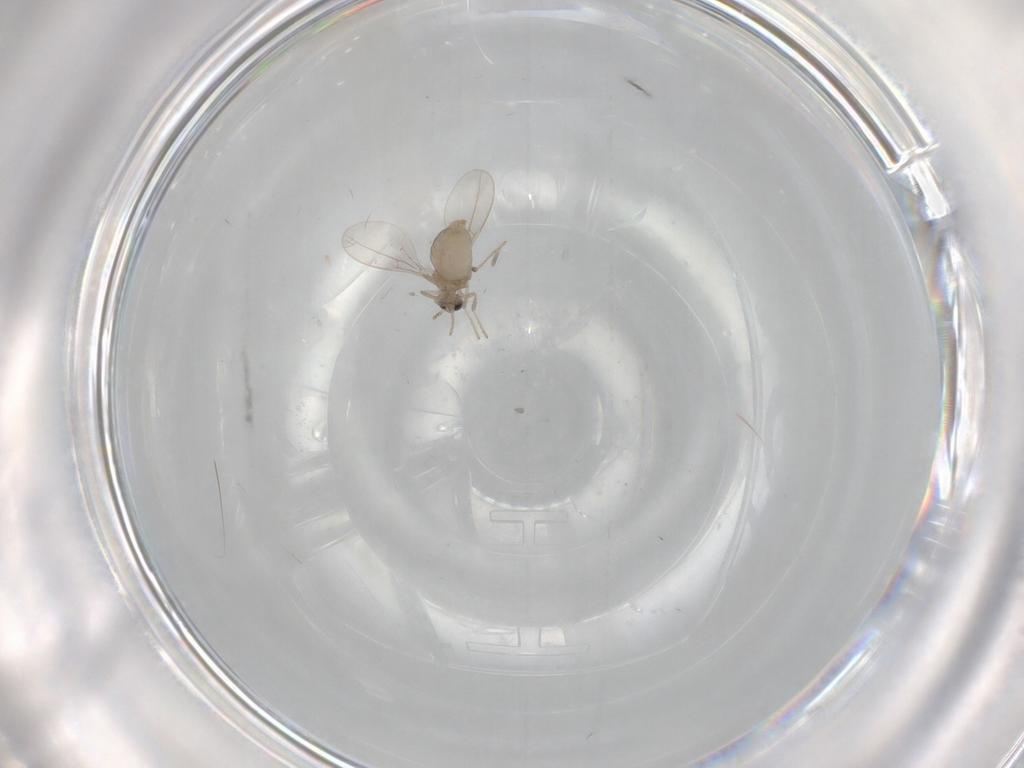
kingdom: Animalia
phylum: Arthropoda
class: Insecta
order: Diptera
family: Cecidomyiidae
